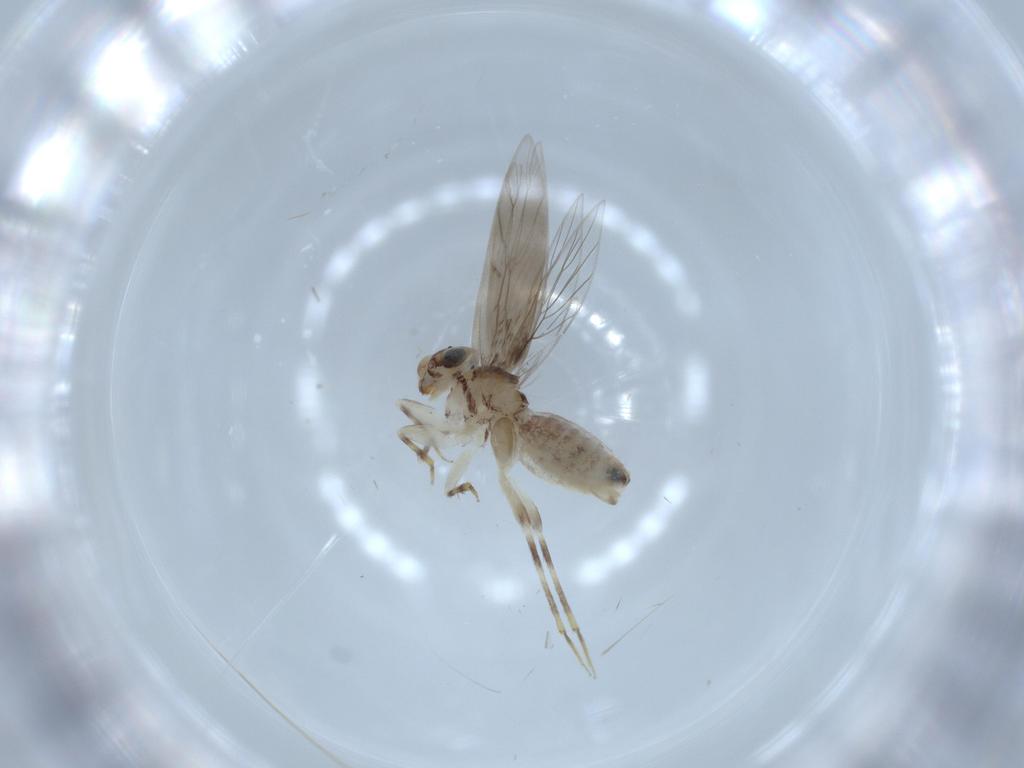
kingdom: Animalia
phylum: Arthropoda
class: Insecta
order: Psocodea
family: Lepidopsocidae
